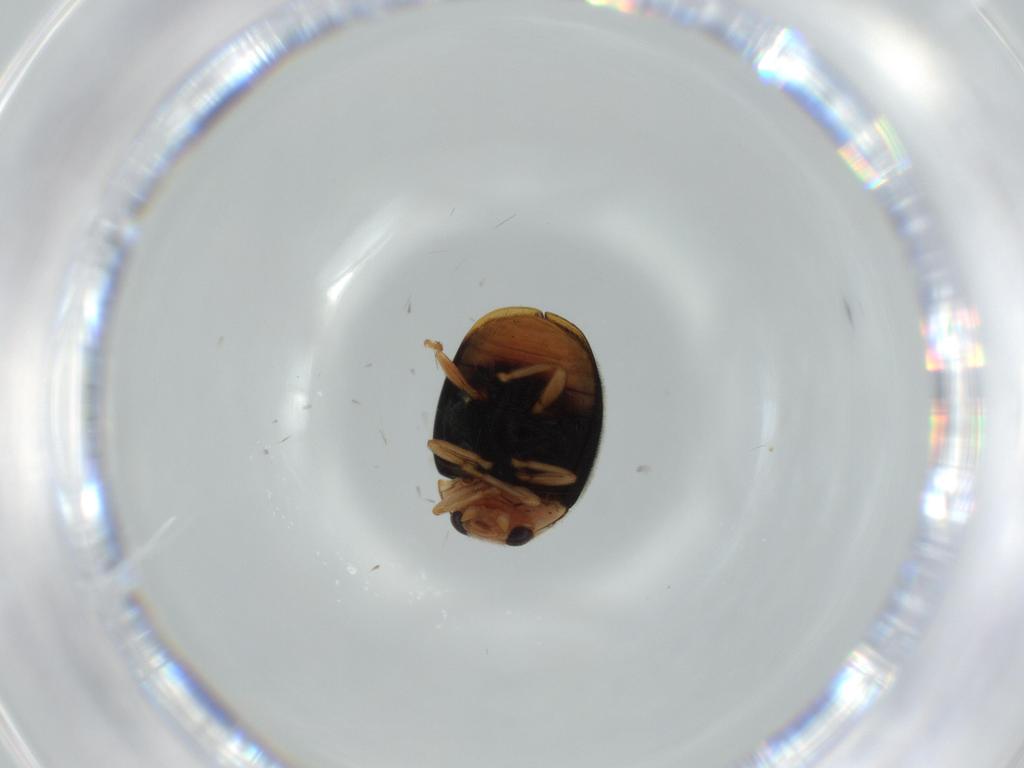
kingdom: Animalia
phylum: Arthropoda
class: Insecta
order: Coleoptera
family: Coccinellidae
